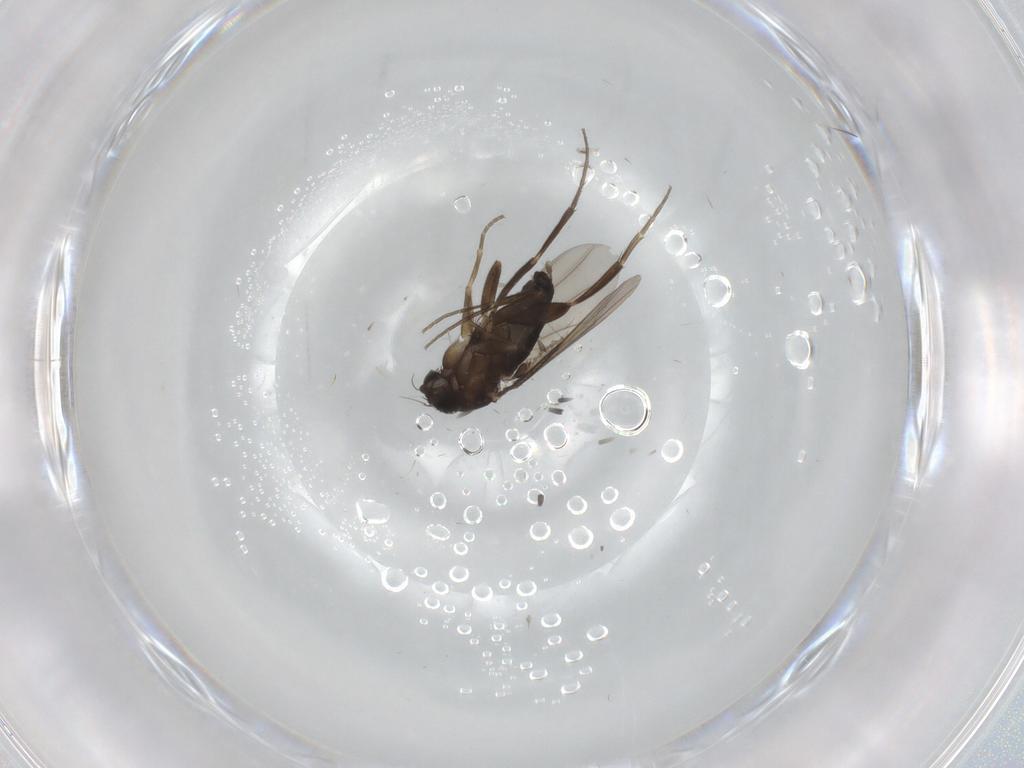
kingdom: Animalia
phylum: Arthropoda
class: Insecta
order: Diptera
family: Phoridae
